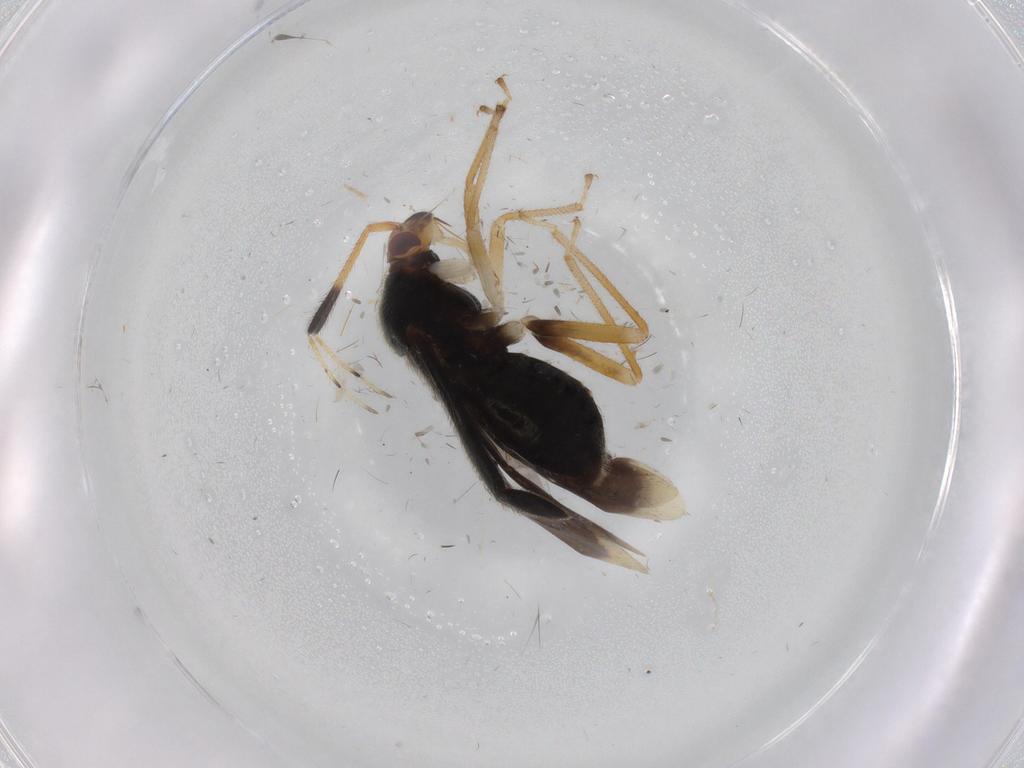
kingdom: Animalia
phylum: Arthropoda
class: Insecta
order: Hemiptera
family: Miridae
